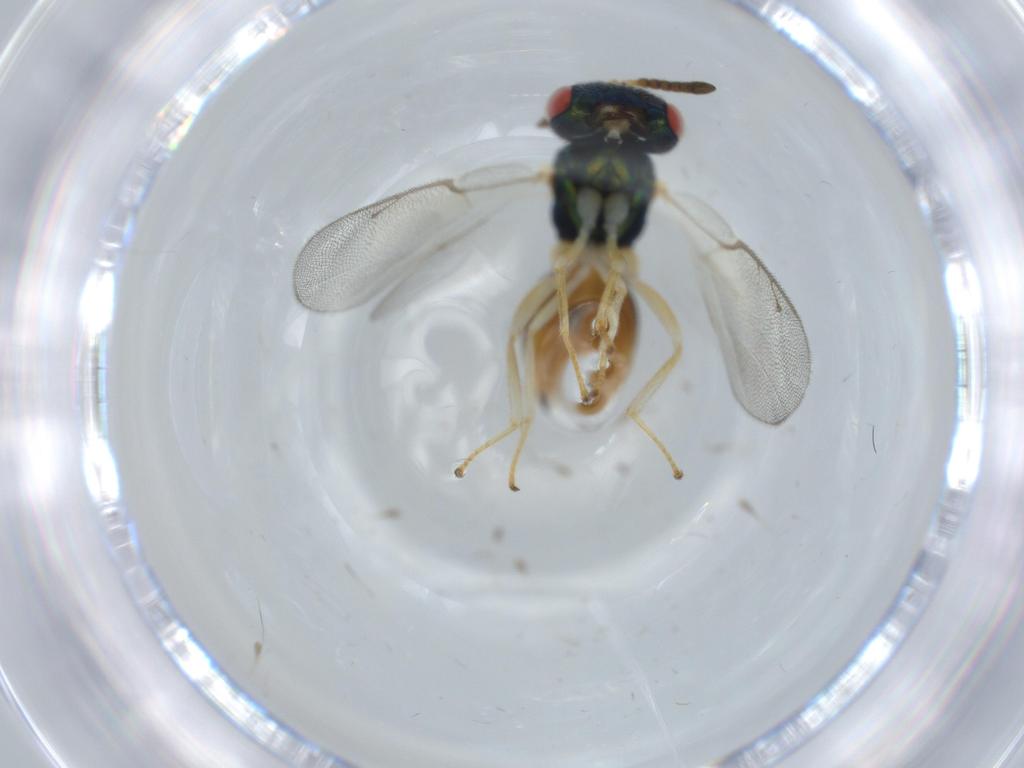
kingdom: Animalia
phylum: Arthropoda
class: Insecta
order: Hymenoptera
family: Pteromalidae
